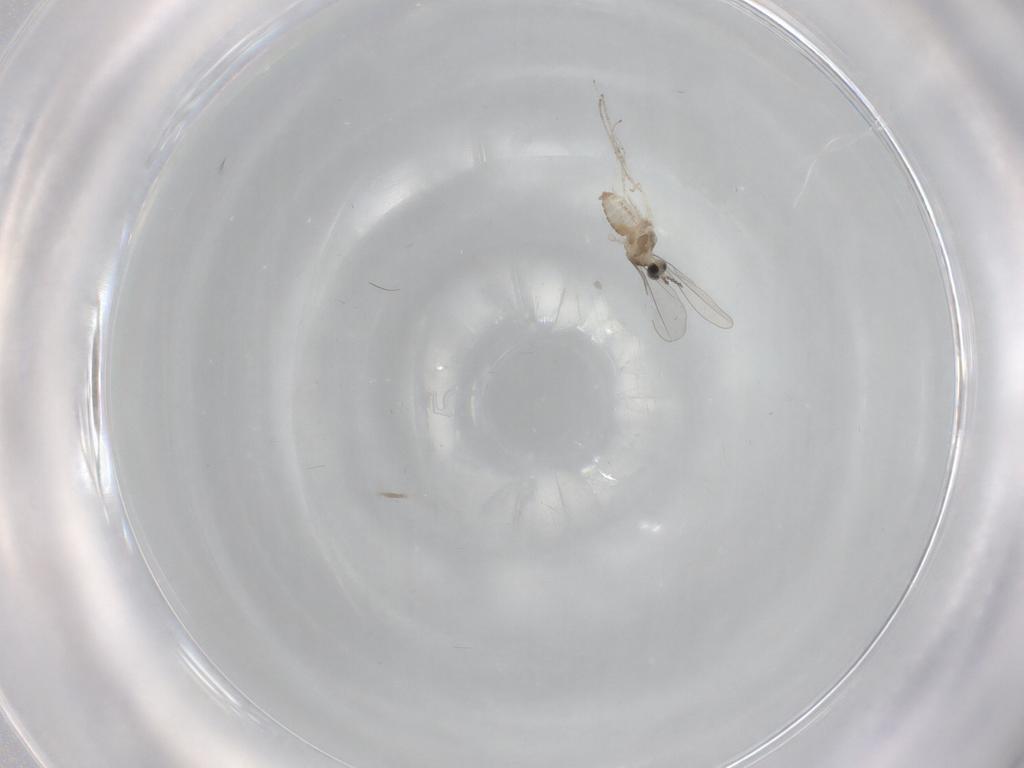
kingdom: Animalia
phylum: Arthropoda
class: Insecta
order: Diptera
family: Cecidomyiidae
